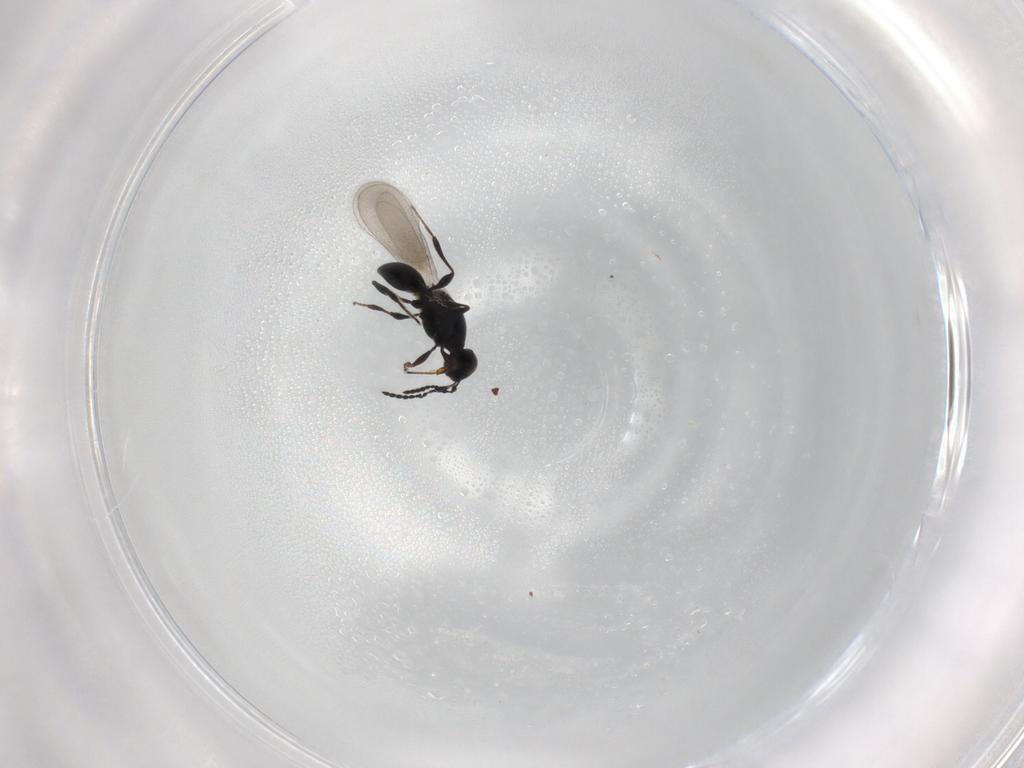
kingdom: Animalia
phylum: Arthropoda
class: Insecta
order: Hymenoptera
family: Platygastridae
